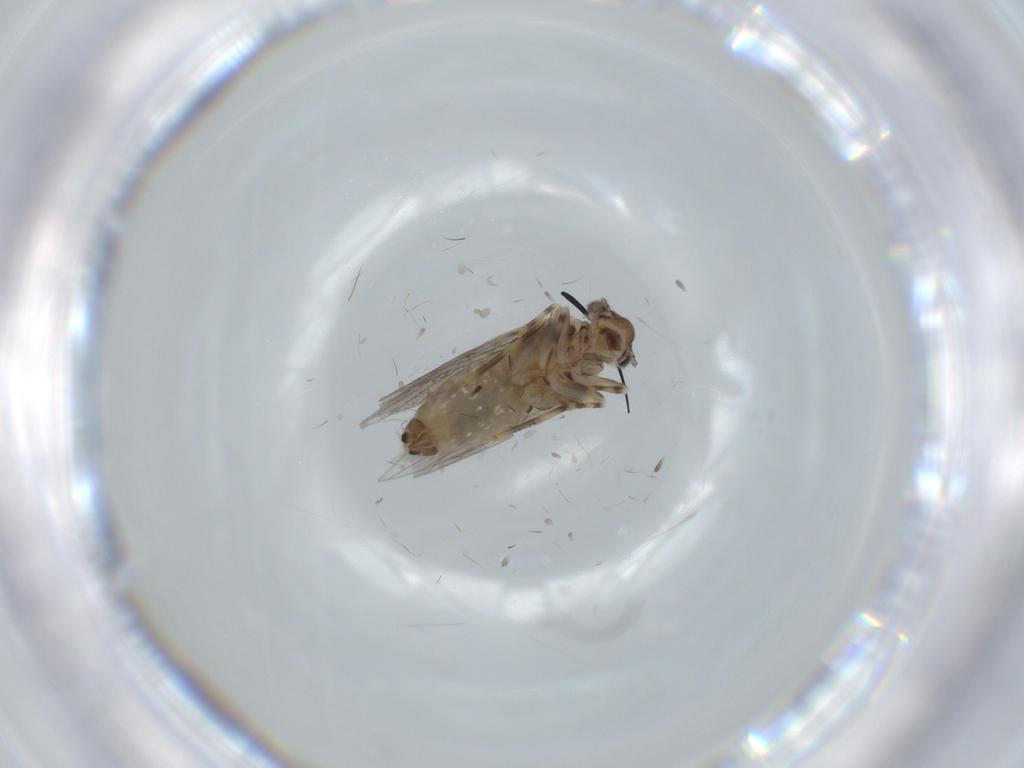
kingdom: Animalia
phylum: Arthropoda
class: Insecta
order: Psocodea
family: Lepidopsocidae
